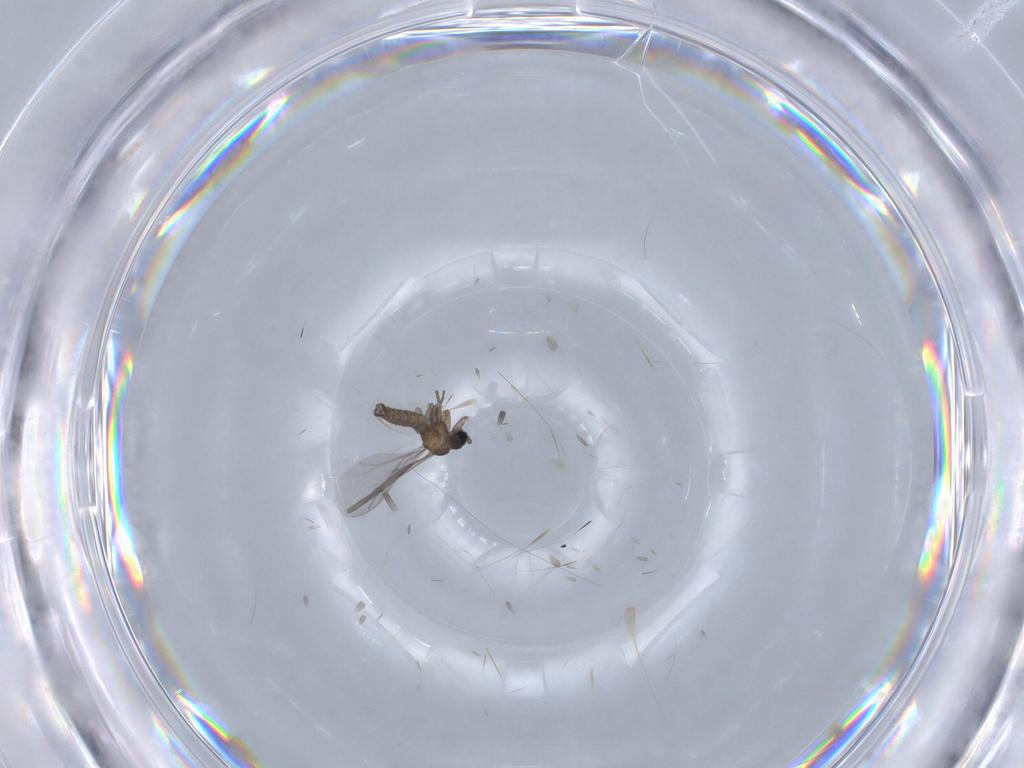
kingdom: Animalia
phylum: Arthropoda
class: Insecta
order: Diptera
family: Sciaridae
